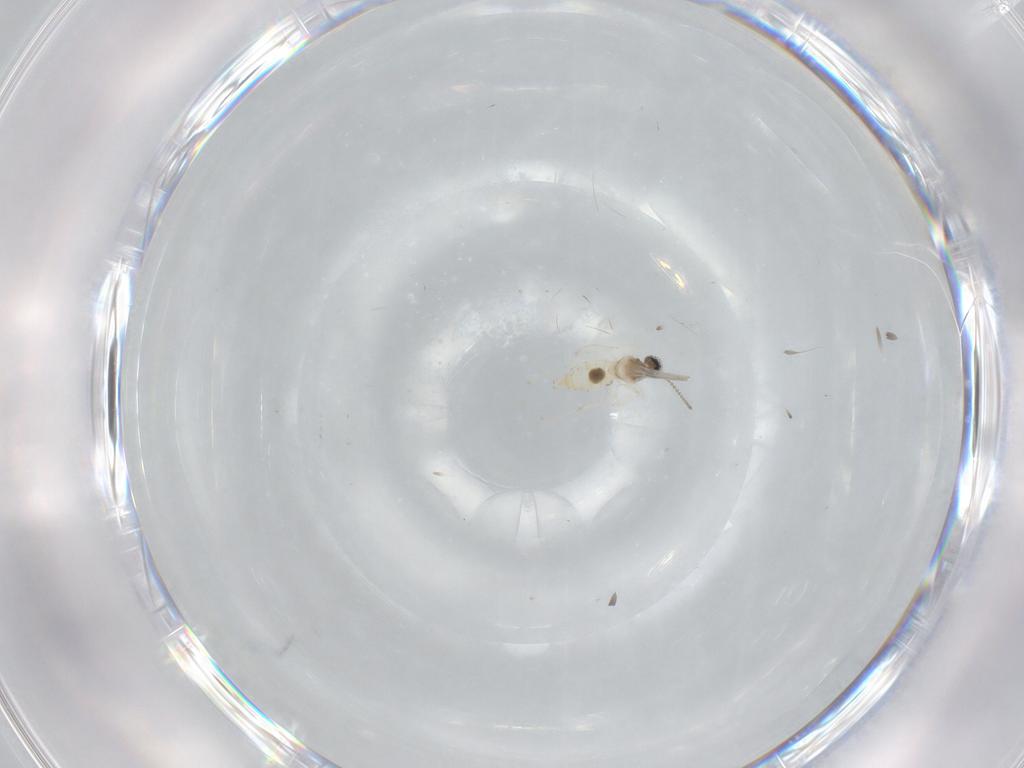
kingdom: Animalia
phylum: Arthropoda
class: Insecta
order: Diptera
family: Cecidomyiidae
